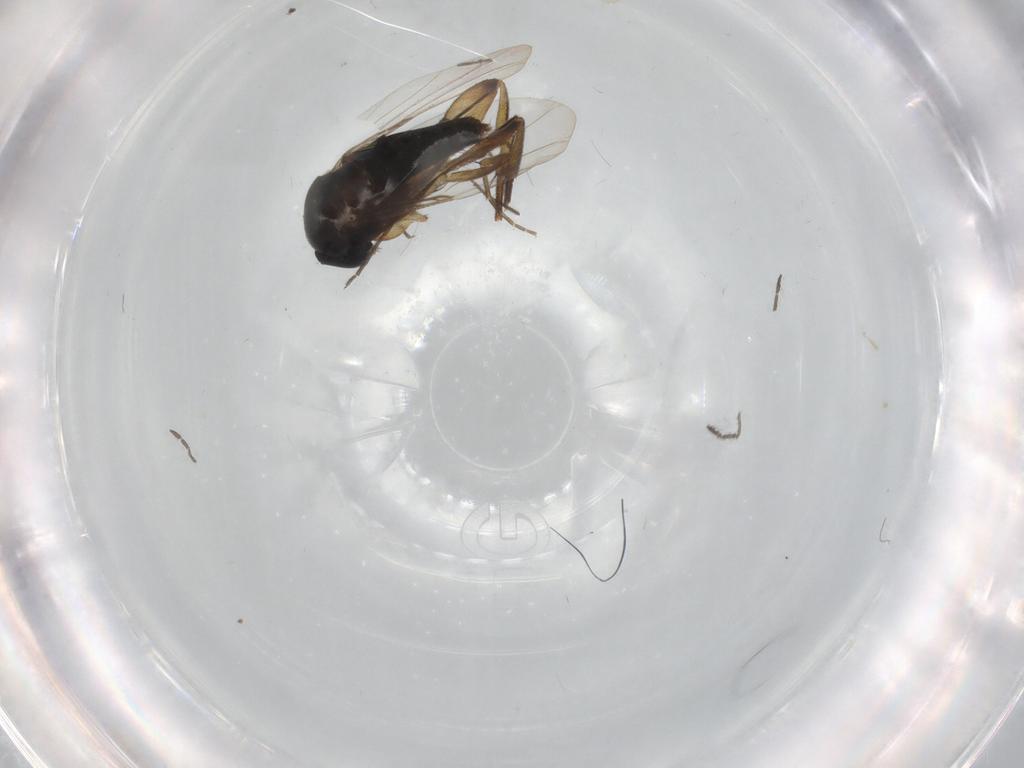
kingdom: Animalia
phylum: Arthropoda
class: Insecta
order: Diptera
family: Phoridae
